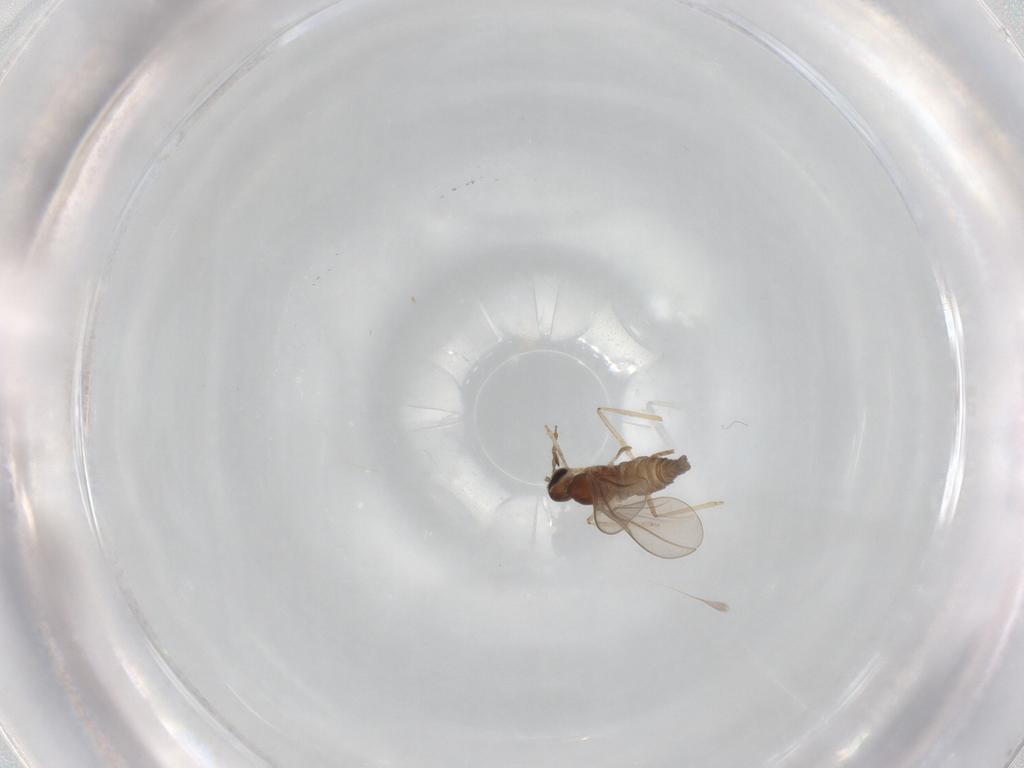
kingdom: Animalia
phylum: Arthropoda
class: Insecta
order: Diptera
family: Cecidomyiidae
